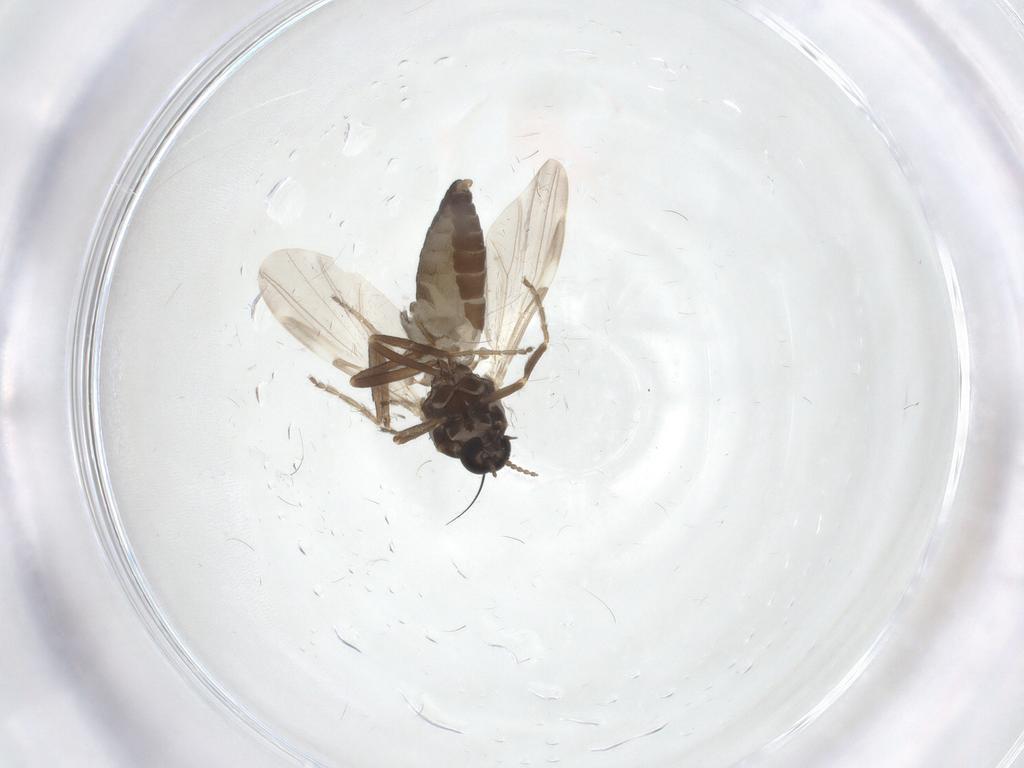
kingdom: Animalia
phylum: Arthropoda
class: Insecta
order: Diptera
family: Ceratopogonidae
